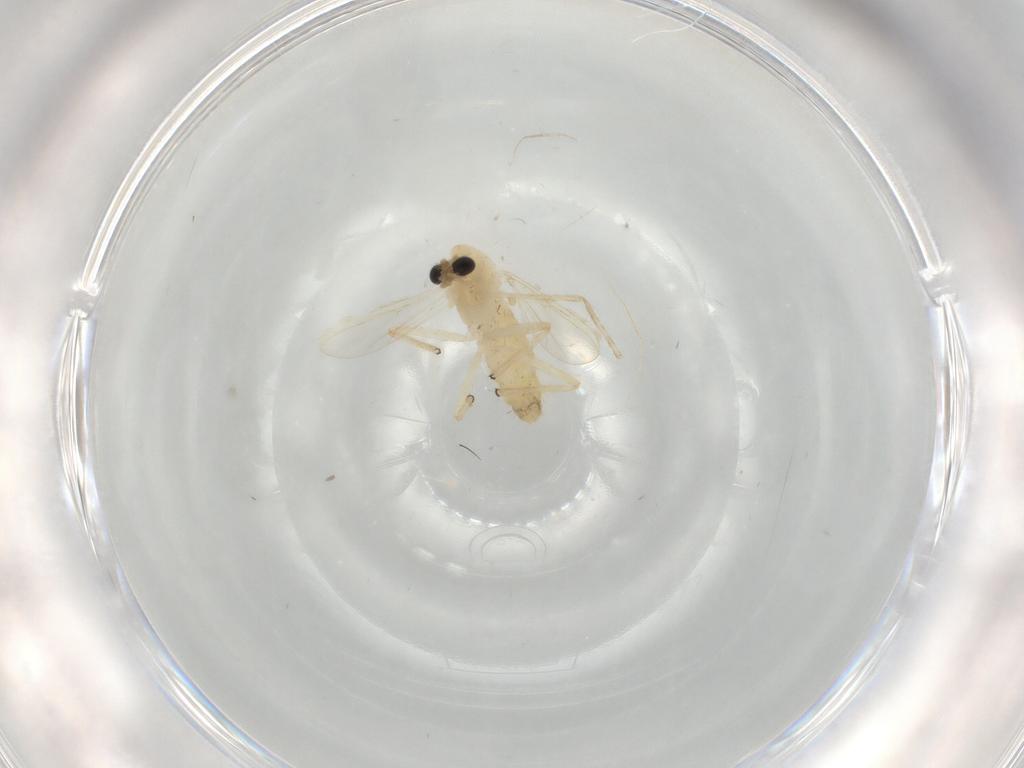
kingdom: Animalia
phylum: Arthropoda
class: Insecta
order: Diptera
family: Chironomidae
